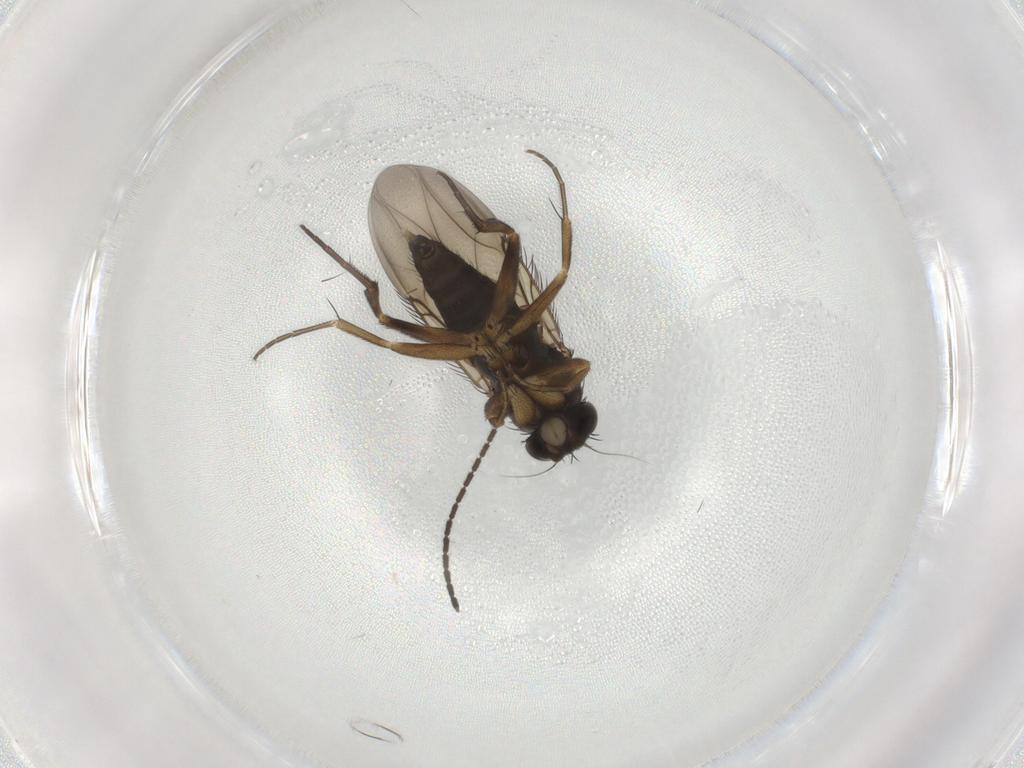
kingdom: Animalia
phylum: Arthropoda
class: Insecta
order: Diptera
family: Phoridae
